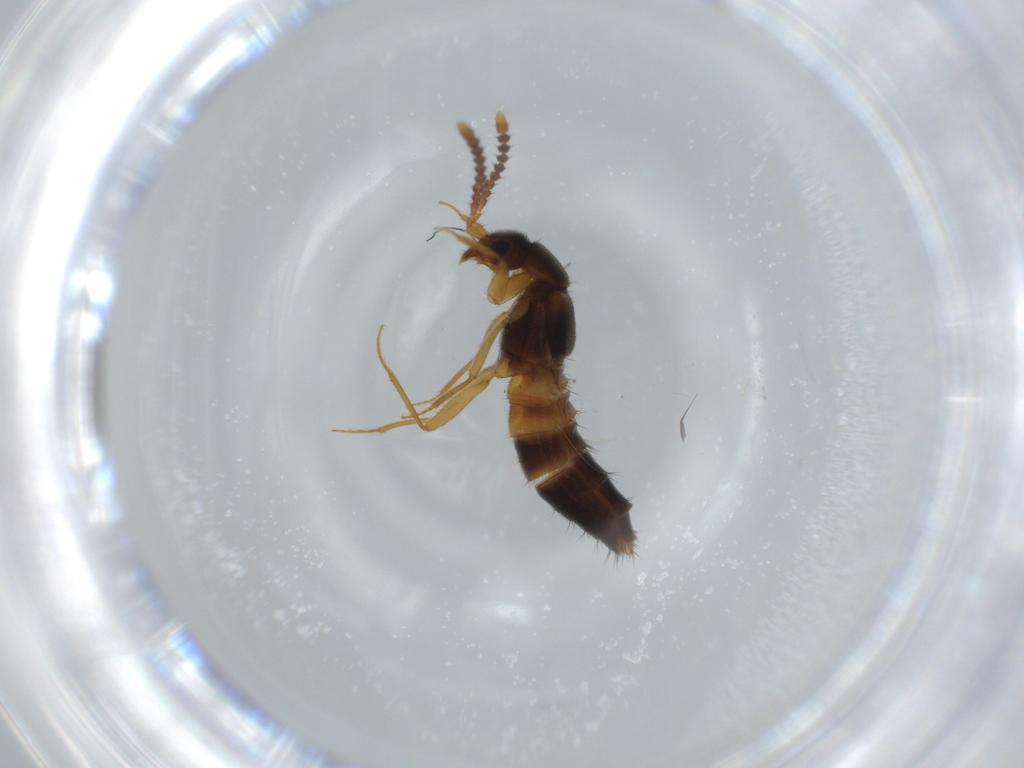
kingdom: Animalia
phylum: Arthropoda
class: Insecta
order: Coleoptera
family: Staphylinidae
